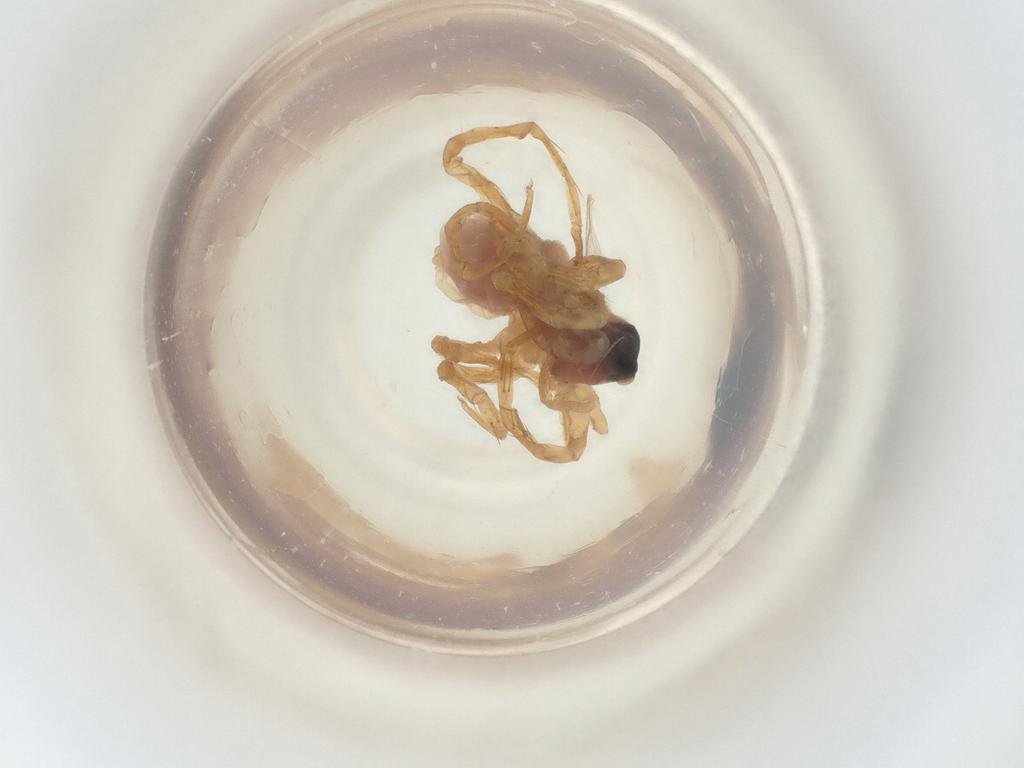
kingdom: Animalia
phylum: Arthropoda
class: Insecta
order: Diptera
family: Sciaridae
